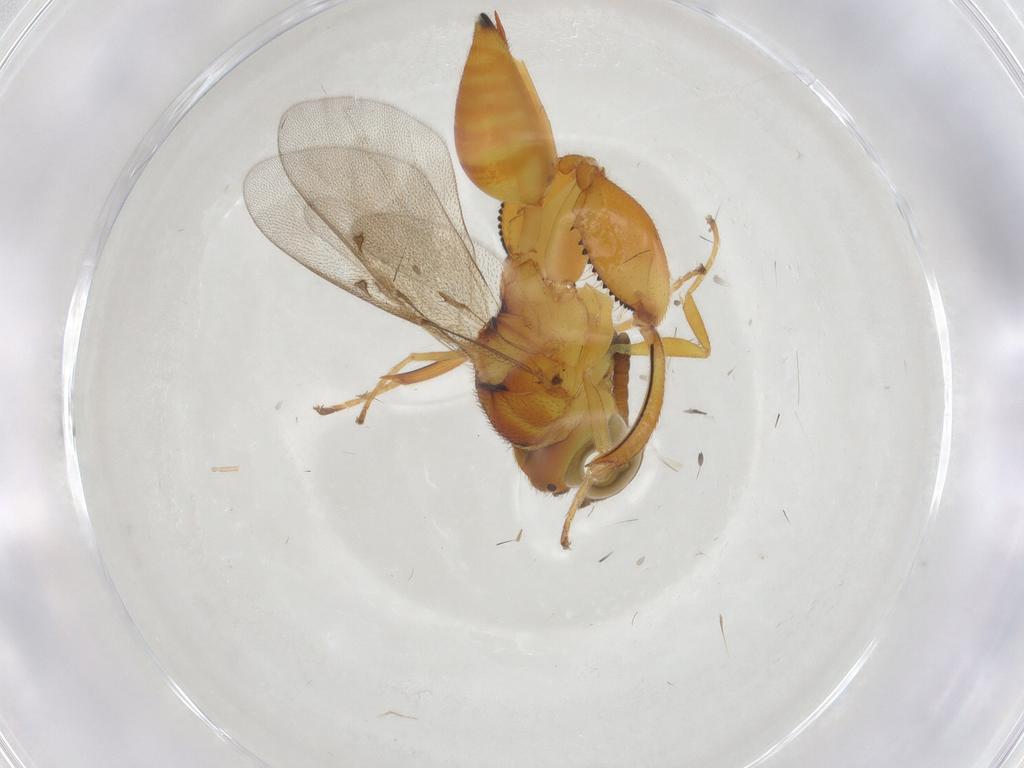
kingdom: Animalia
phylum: Arthropoda
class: Insecta
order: Hymenoptera
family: Chalcididae
